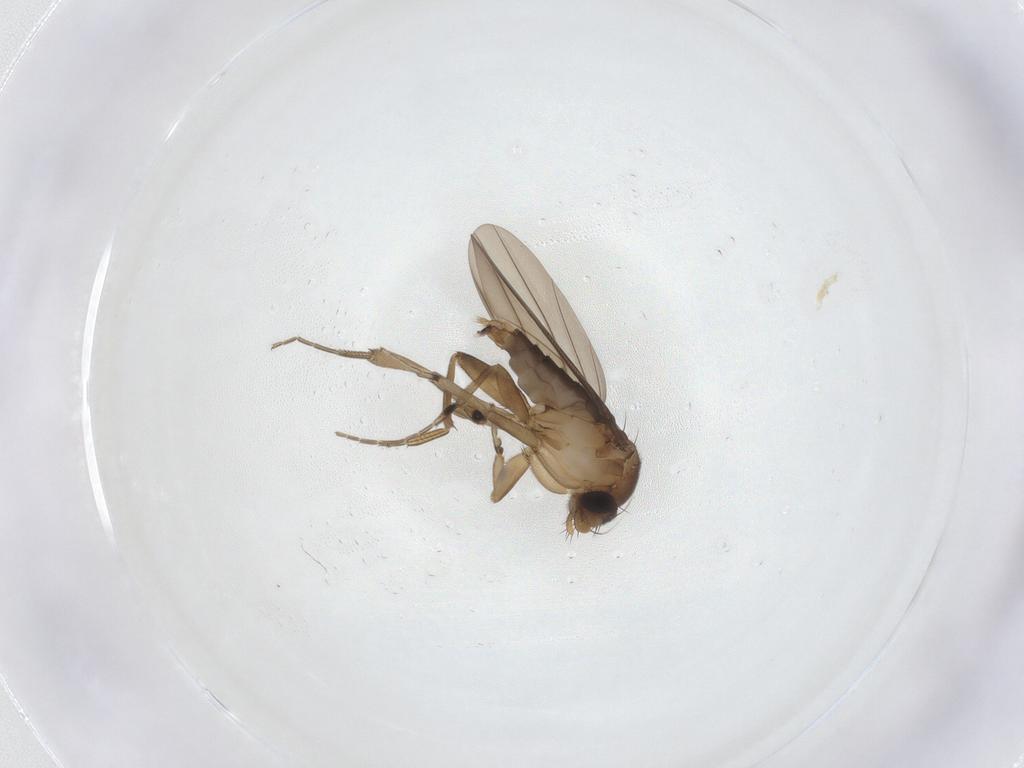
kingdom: Animalia
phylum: Arthropoda
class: Insecta
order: Diptera
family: Phoridae
